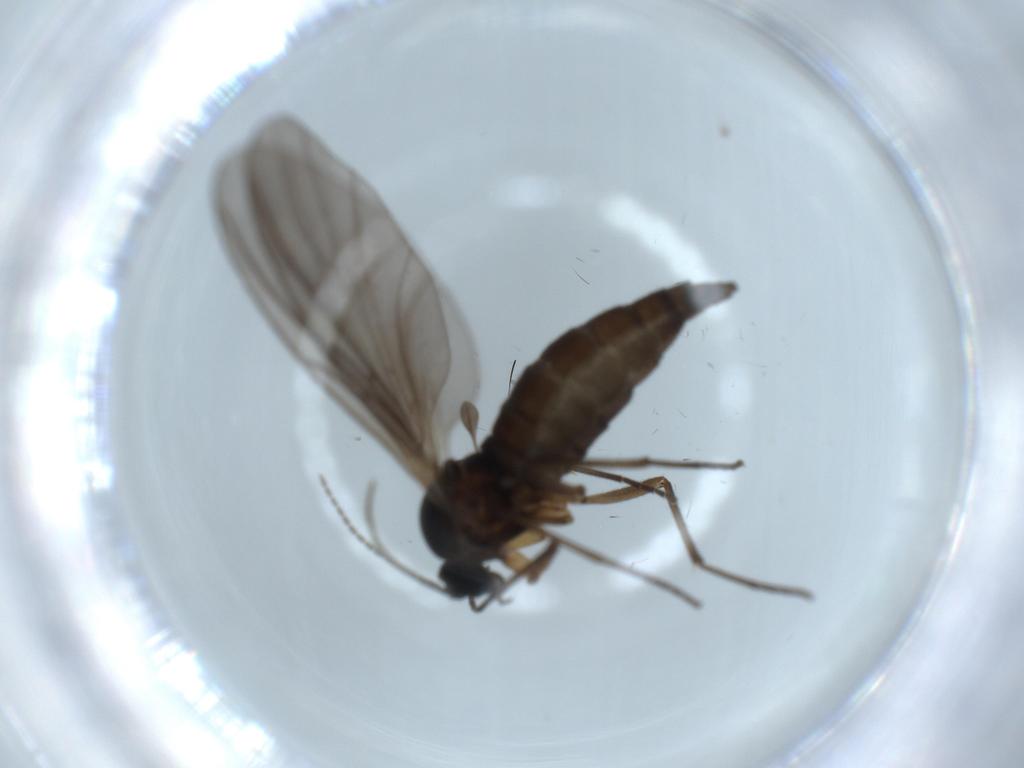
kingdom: Animalia
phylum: Arthropoda
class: Insecta
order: Diptera
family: Sciaridae
